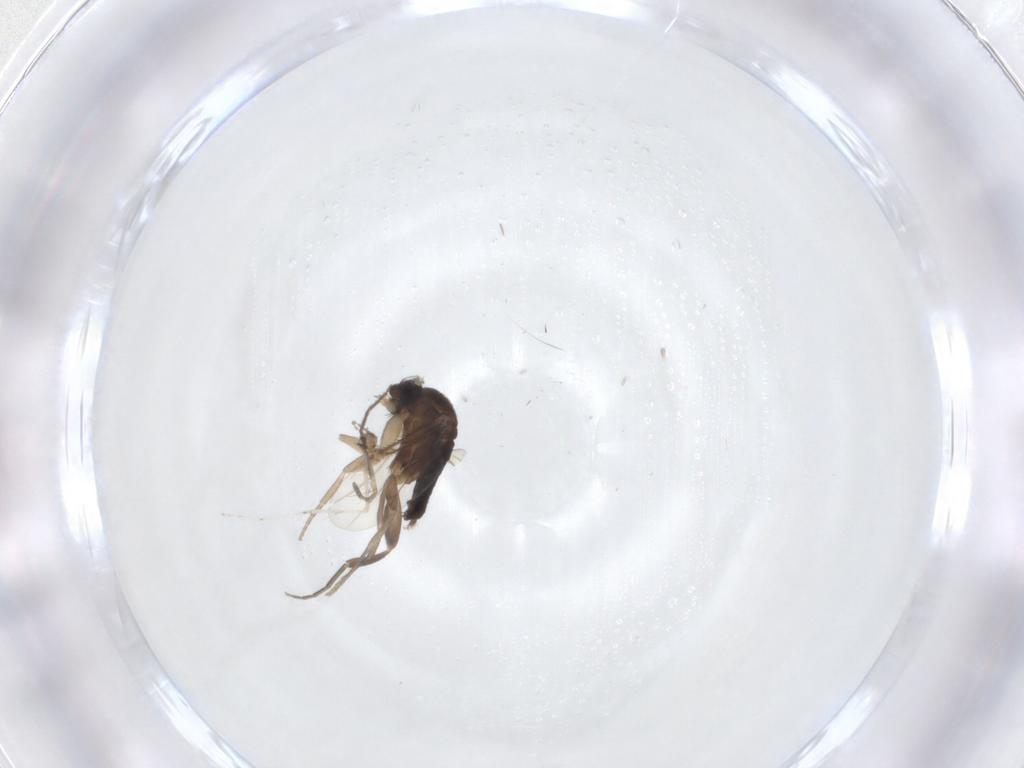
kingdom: Animalia
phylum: Arthropoda
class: Insecta
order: Diptera
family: Phoridae
